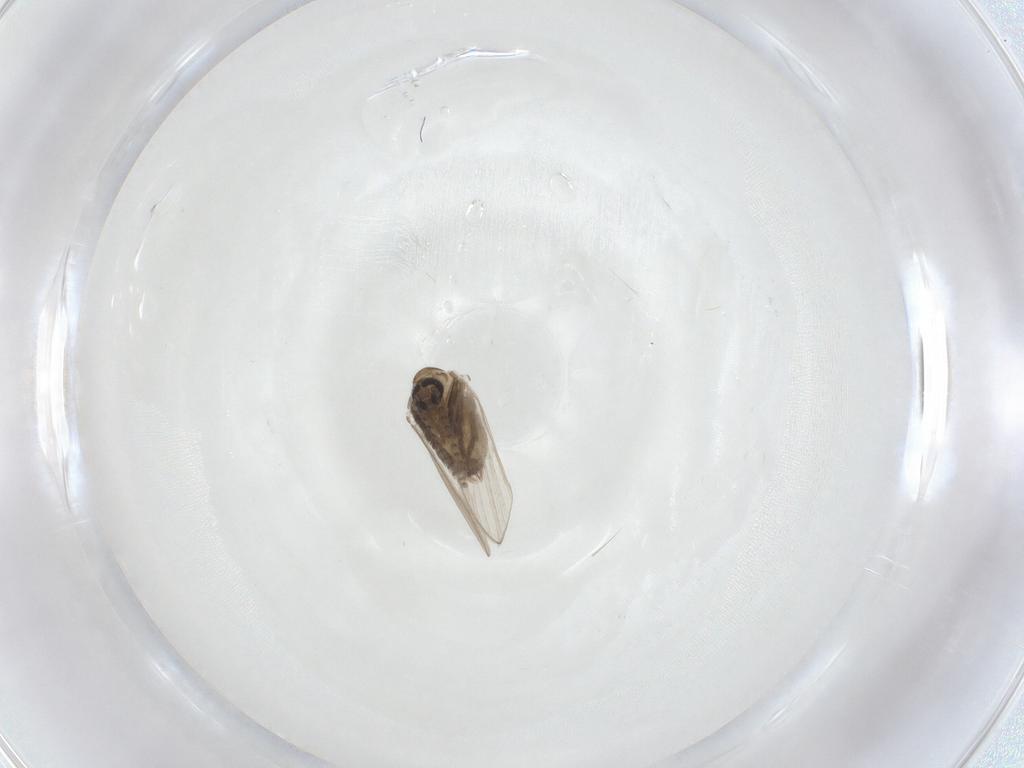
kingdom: Animalia
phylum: Arthropoda
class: Insecta
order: Diptera
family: Psychodidae
